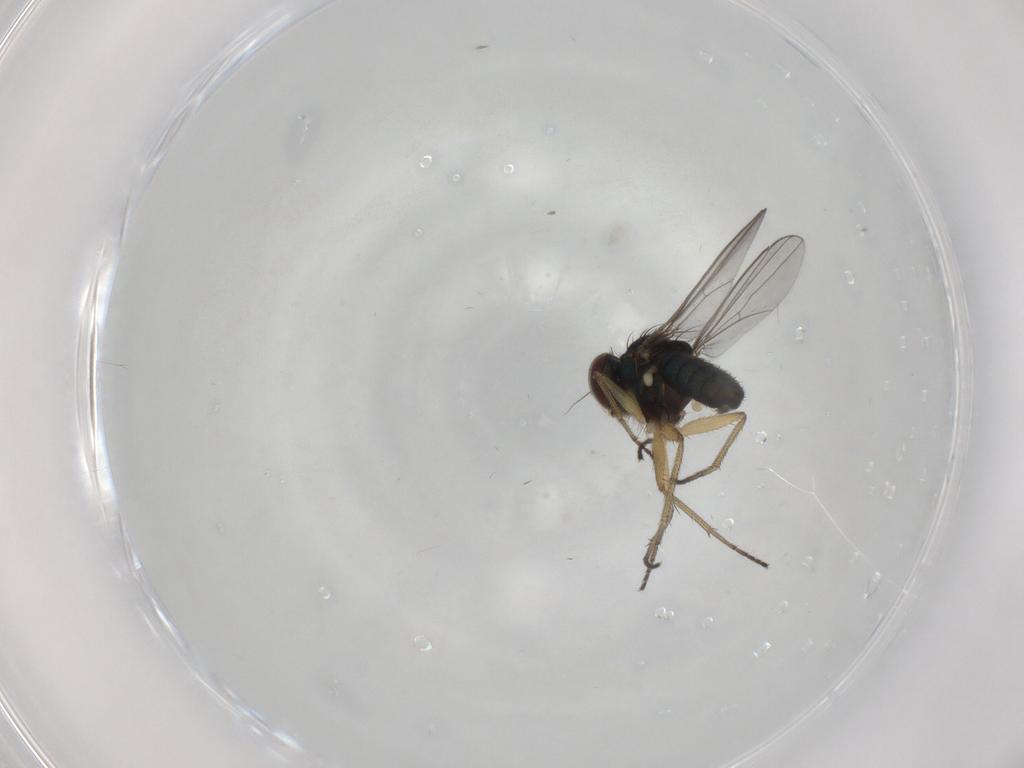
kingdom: Animalia
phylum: Arthropoda
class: Insecta
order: Diptera
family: Dolichopodidae
